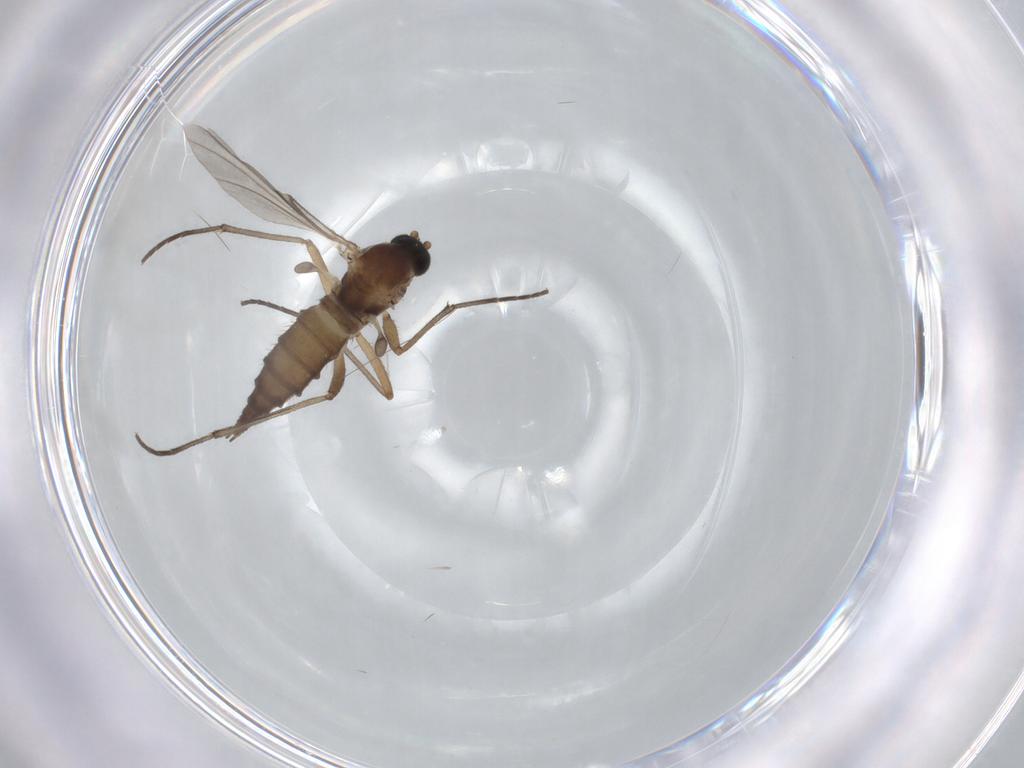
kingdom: Animalia
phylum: Arthropoda
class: Insecta
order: Diptera
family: Sciaridae
